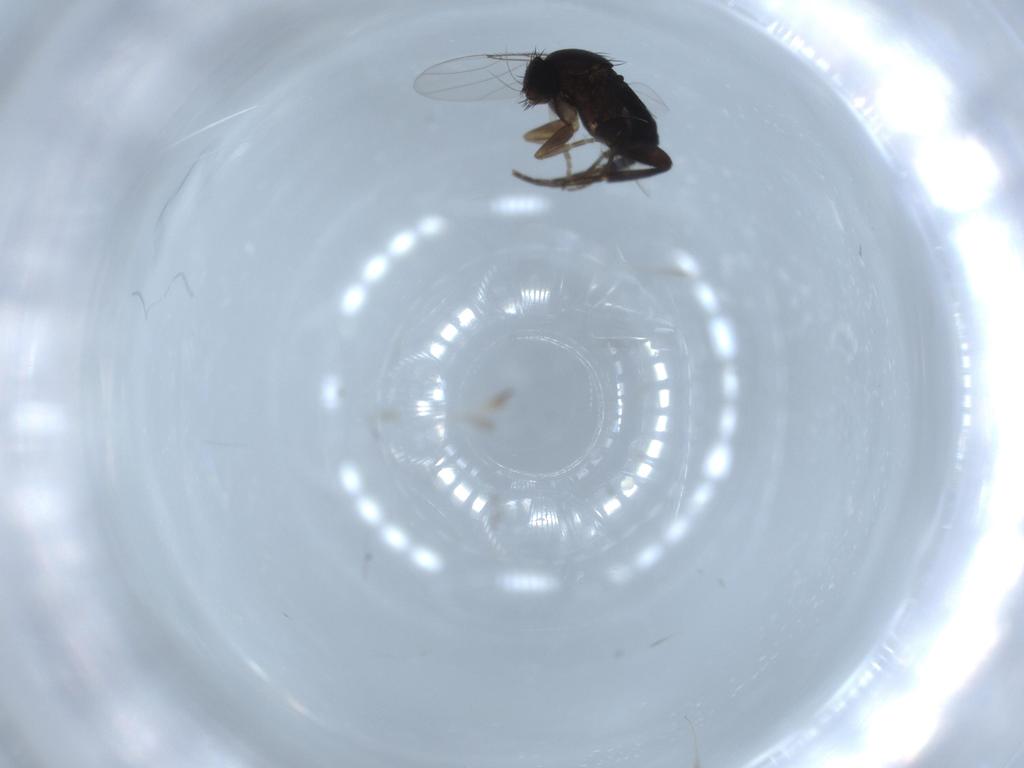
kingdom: Animalia
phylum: Arthropoda
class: Insecta
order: Diptera
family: Phoridae
